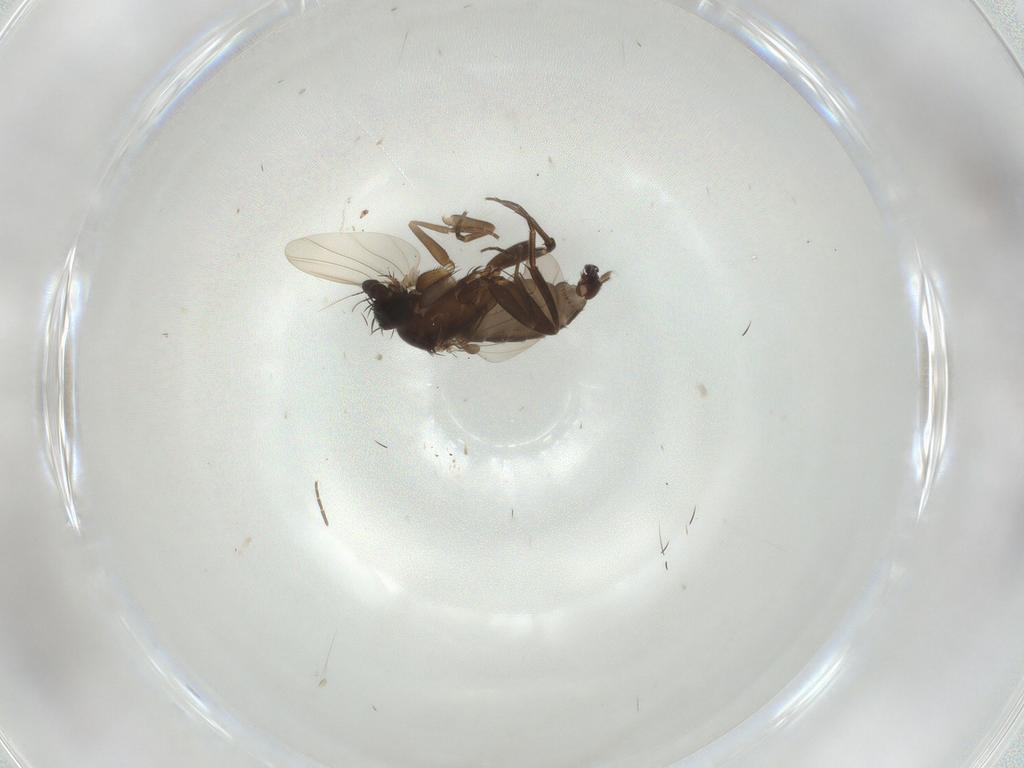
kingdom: Animalia
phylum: Arthropoda
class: Insecta
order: Diptera
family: Phoridae
